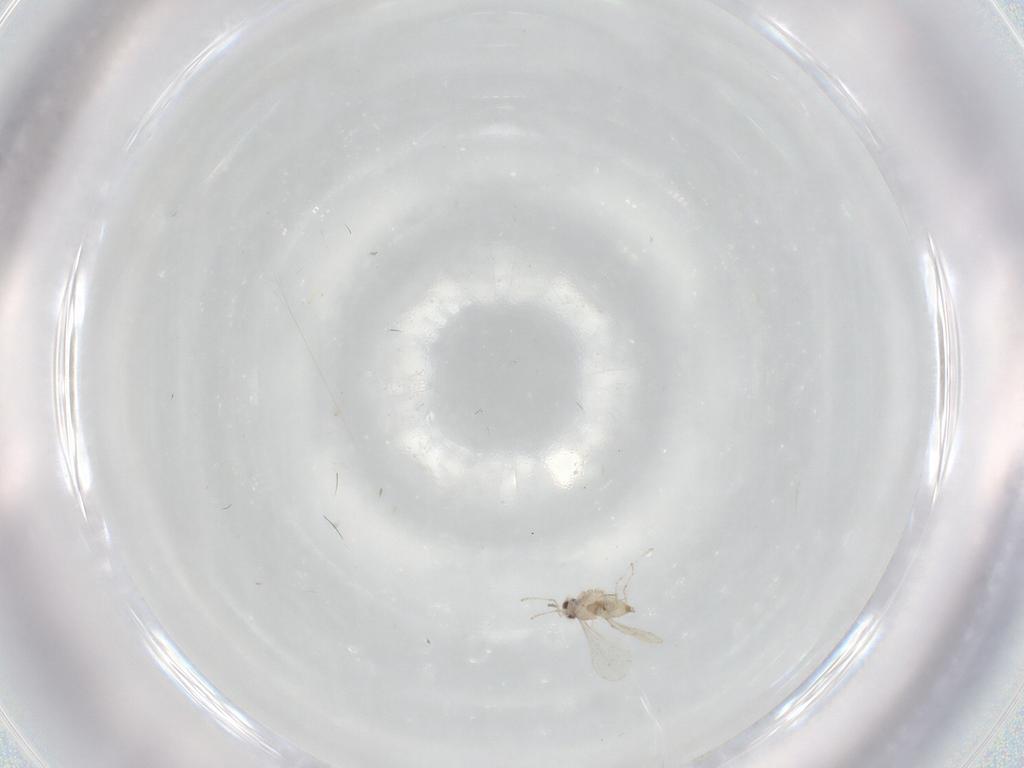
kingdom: Animalia
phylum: Arthropoda
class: Insecta
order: Diptera
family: Cecidomyiidae
